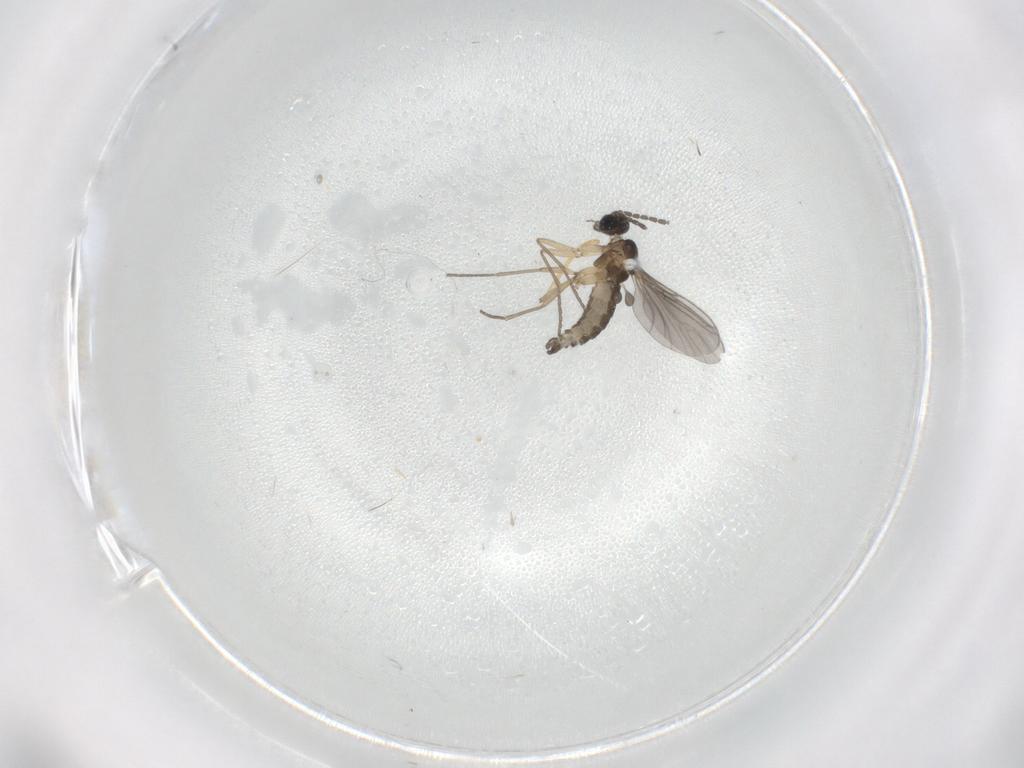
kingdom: Animalia
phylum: Arthropoda
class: Insecta
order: Diptera
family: Sciaridae
